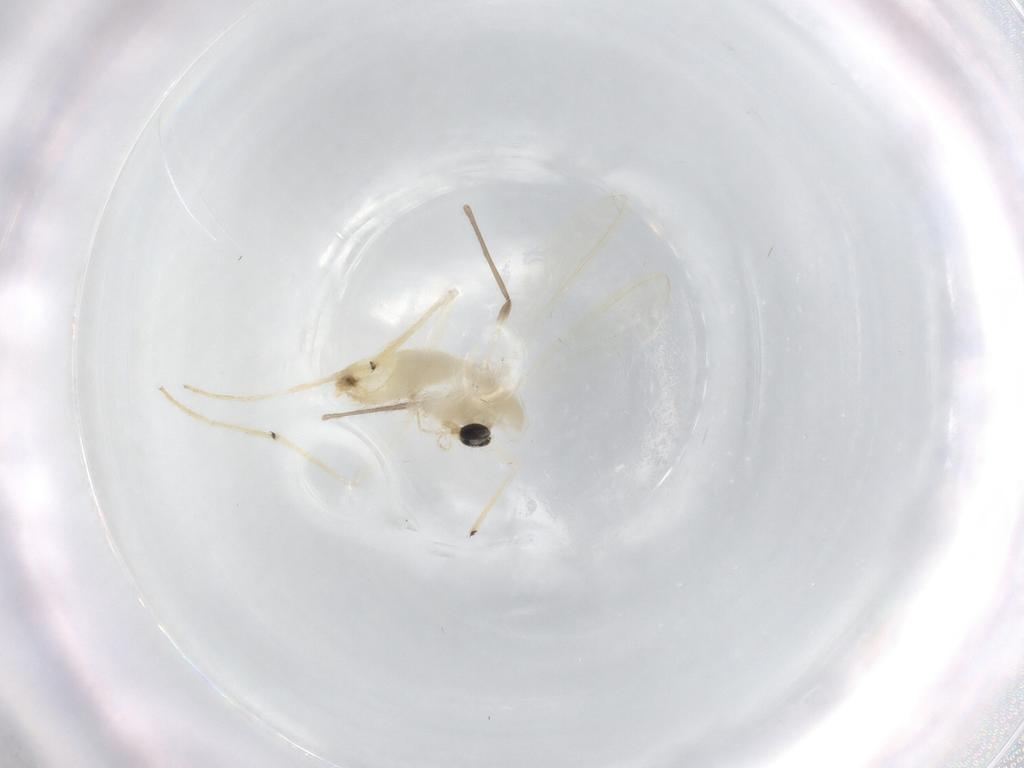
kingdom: Animalia
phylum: Arthropoda
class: Insecta
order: Diptera
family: Chironomidae
